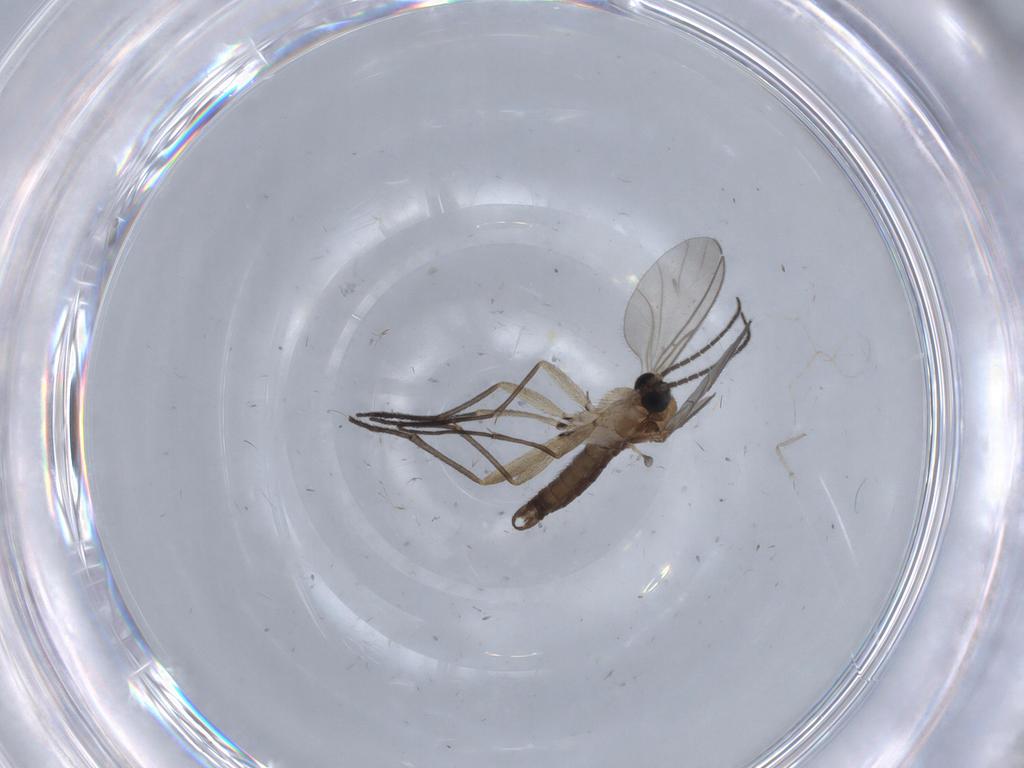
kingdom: Animalia
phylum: Arthropoda
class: Insecta
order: Diptera
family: Sciaridae
